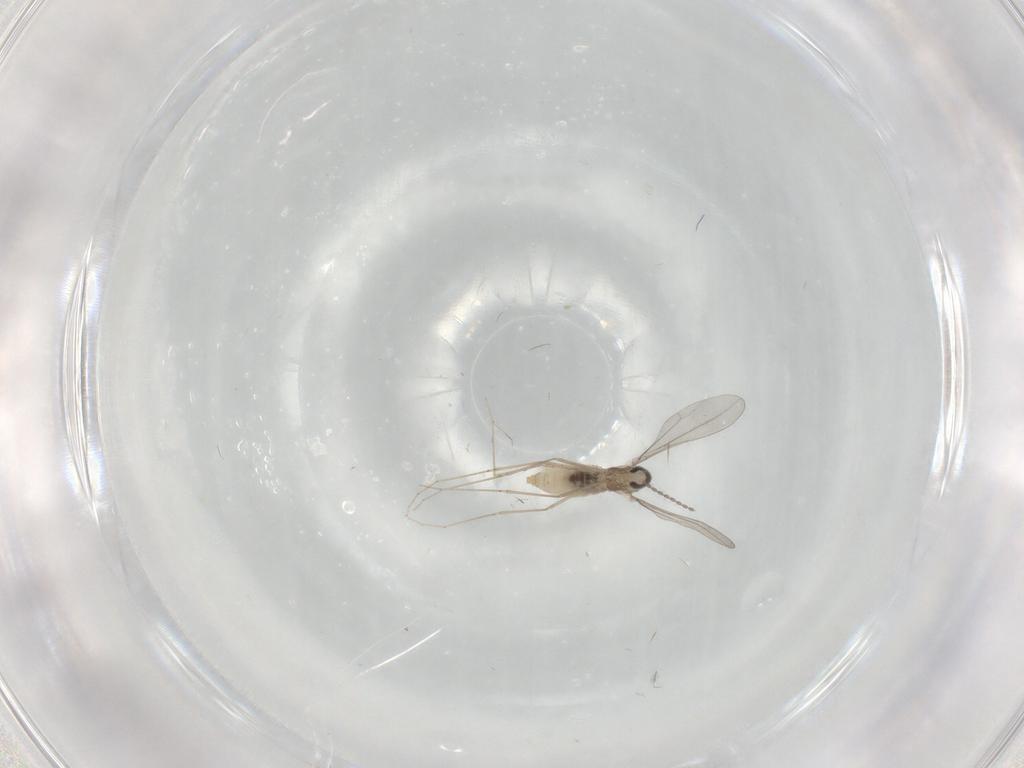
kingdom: Animalia
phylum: Arthropoda
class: Insecta
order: Diptera
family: Cecidomyiidae
